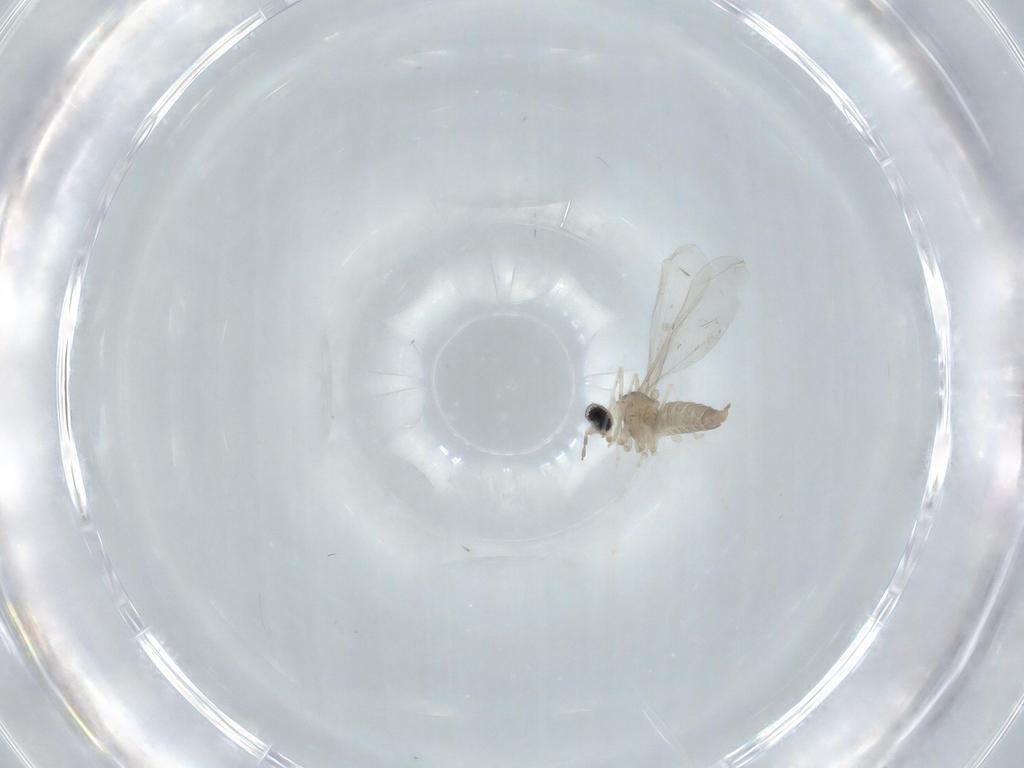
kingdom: Animalia
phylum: Arthropoda
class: Insecta
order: Diptera
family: Cecidomyiidae
